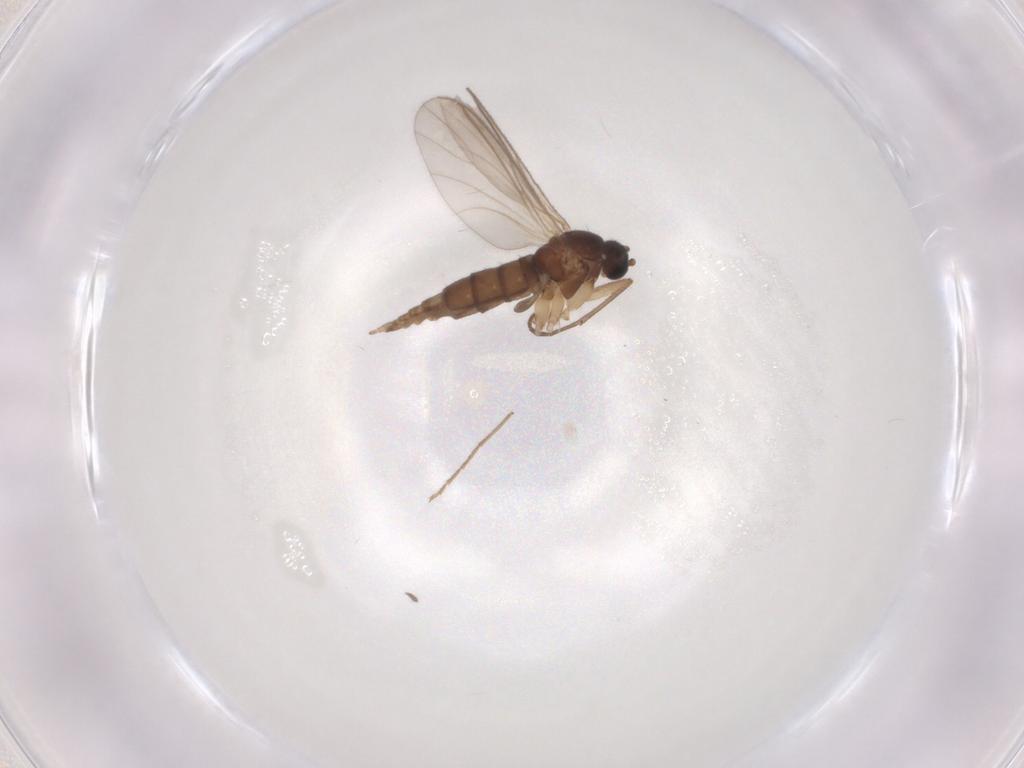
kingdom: Animalia
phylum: Arthropoda
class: Insecta
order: Diptera
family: Sciaridae
